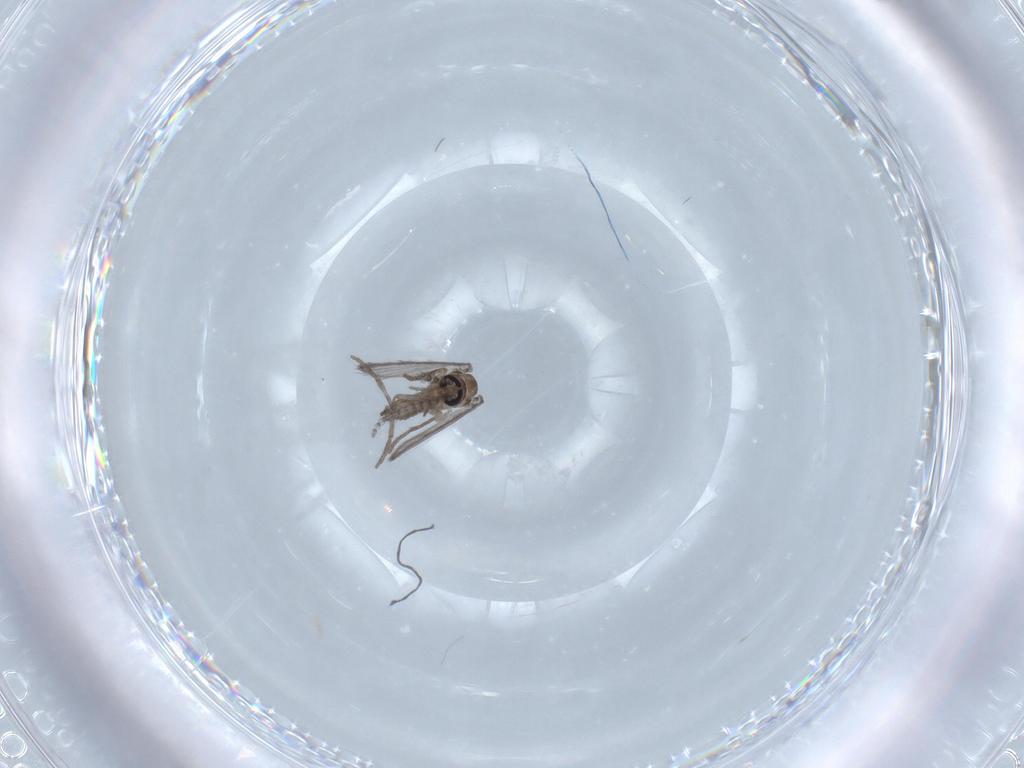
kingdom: Animalia
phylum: Arthropoda
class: Insecta
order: Diptera
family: Psychodidae
